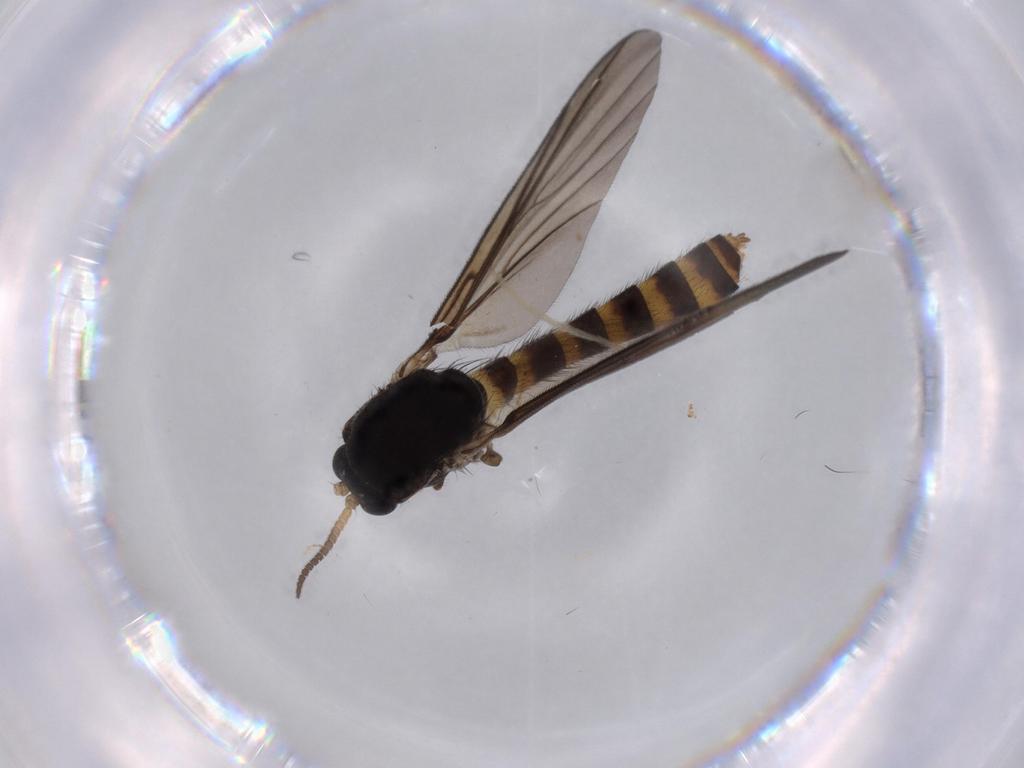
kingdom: Animalia
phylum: Arthropoda
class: Insecta
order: Diptera
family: Mycetophilidae
